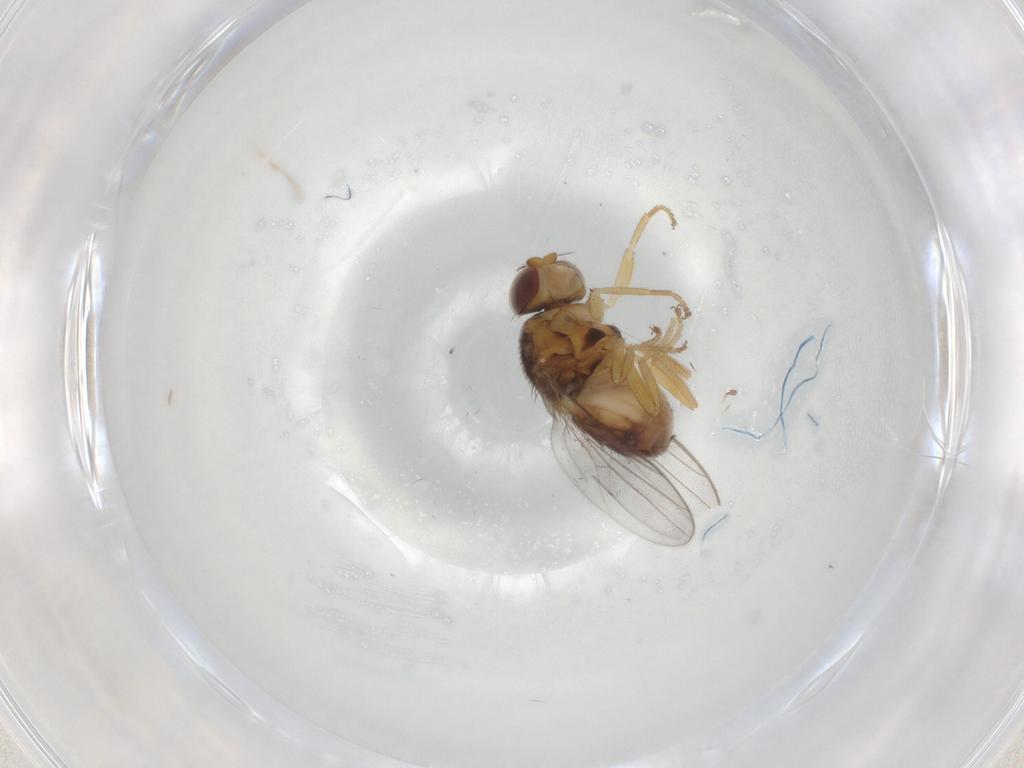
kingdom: Animalia
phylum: Arthropoda
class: Insecta
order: Diptera
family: Chloropidae
